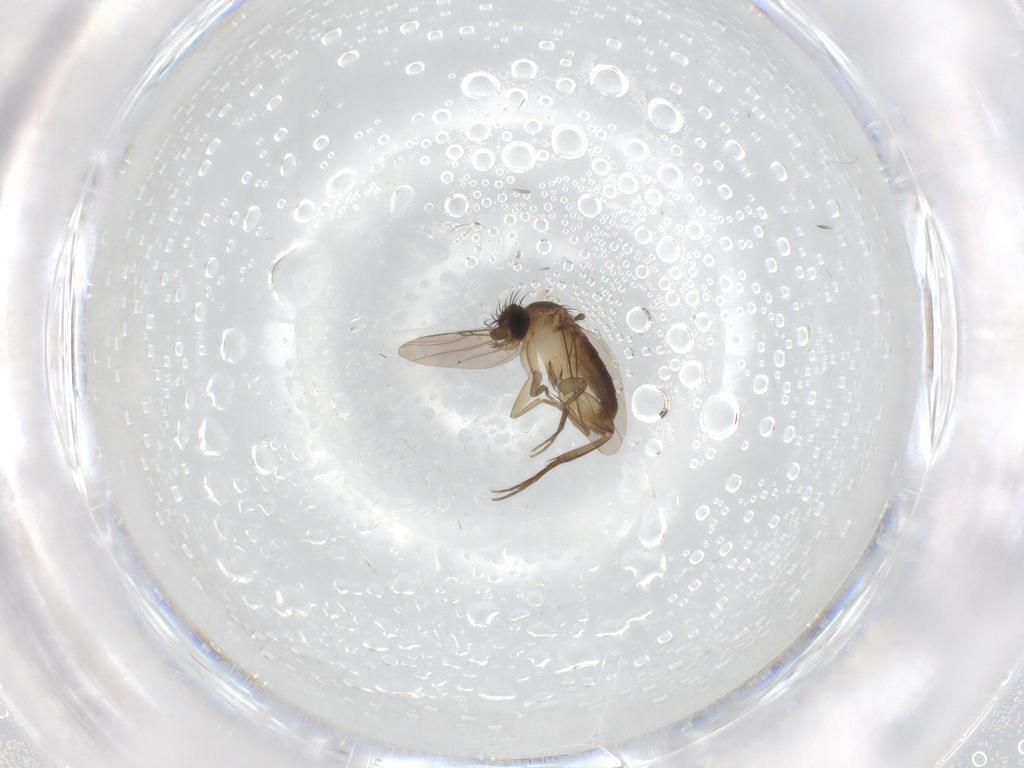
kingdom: Animalia
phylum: Arthropoda
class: Insecta
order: Diptera
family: Phoridae
